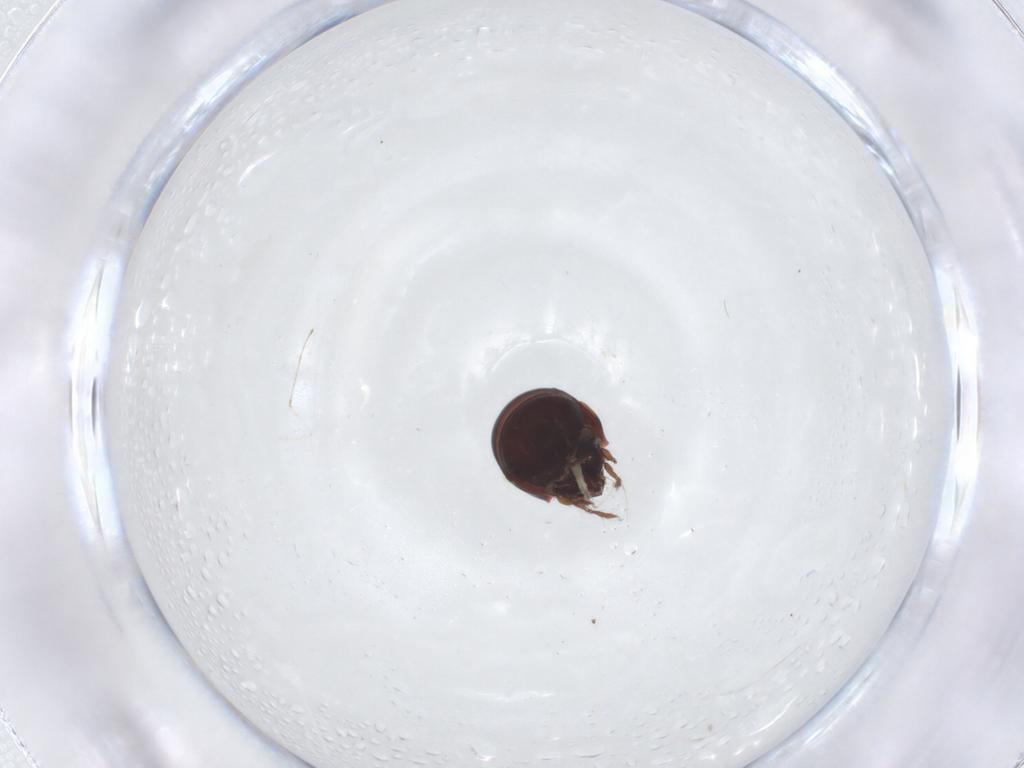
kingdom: Animalia
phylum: Arthropoda
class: Arachnida
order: Sarcoptiformes
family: Mochlozetidae
